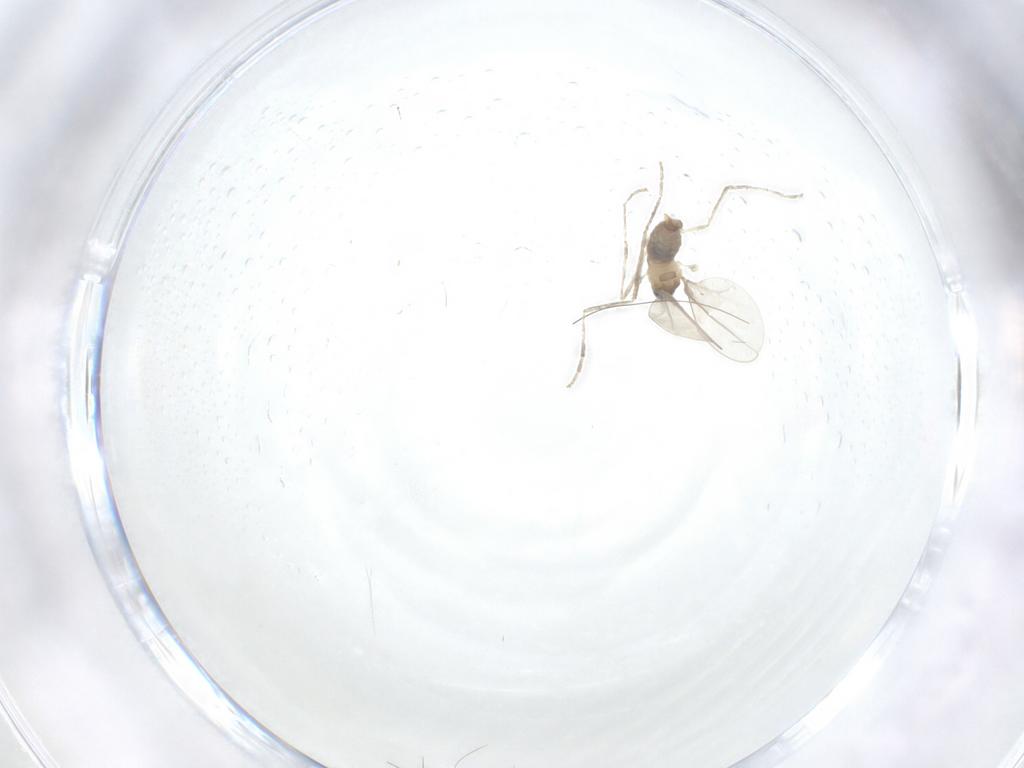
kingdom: Animalia
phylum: Arthropoda
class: Insecta
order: Diptera
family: Cecidomyiidae
